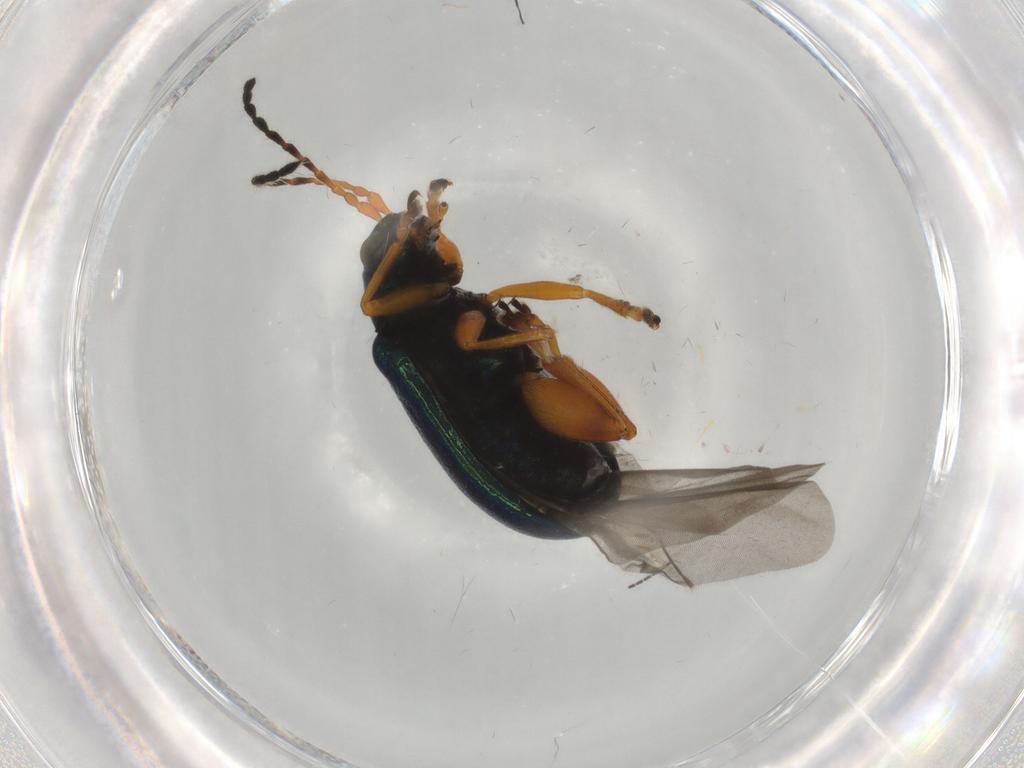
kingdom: Animalia
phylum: Arthropoda
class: Insecta
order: Coleoptera
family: Chrysomelidae
